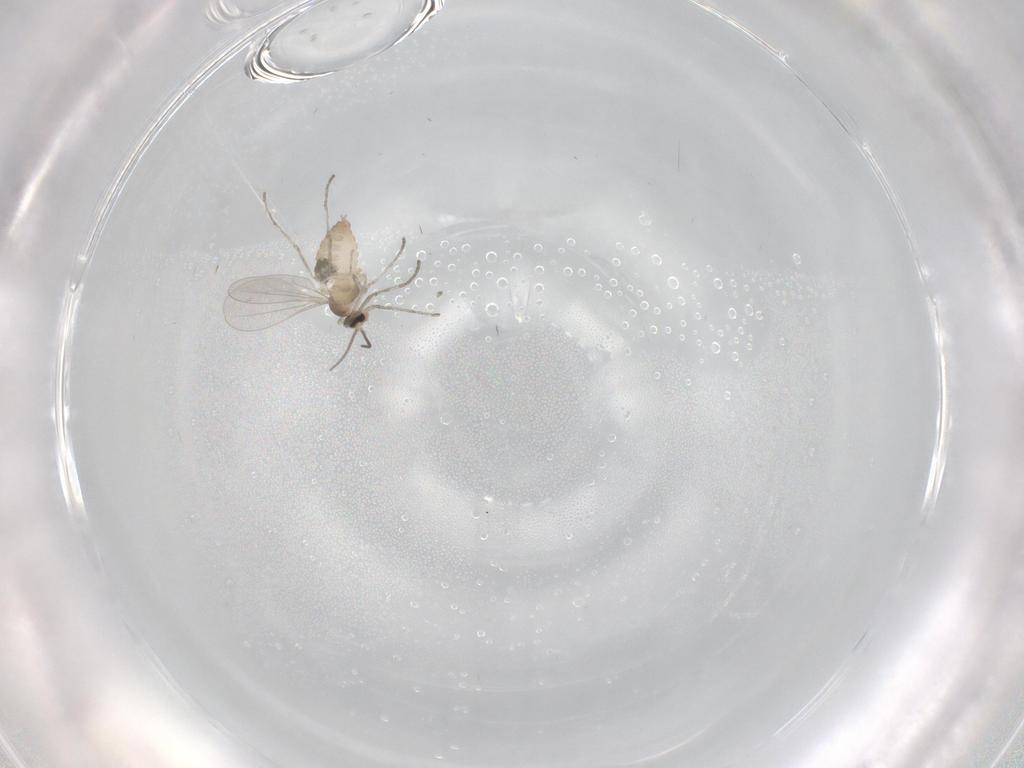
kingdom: Animalia
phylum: Arthropoda
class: Insecta
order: Diptera
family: Cecidomyiidae
